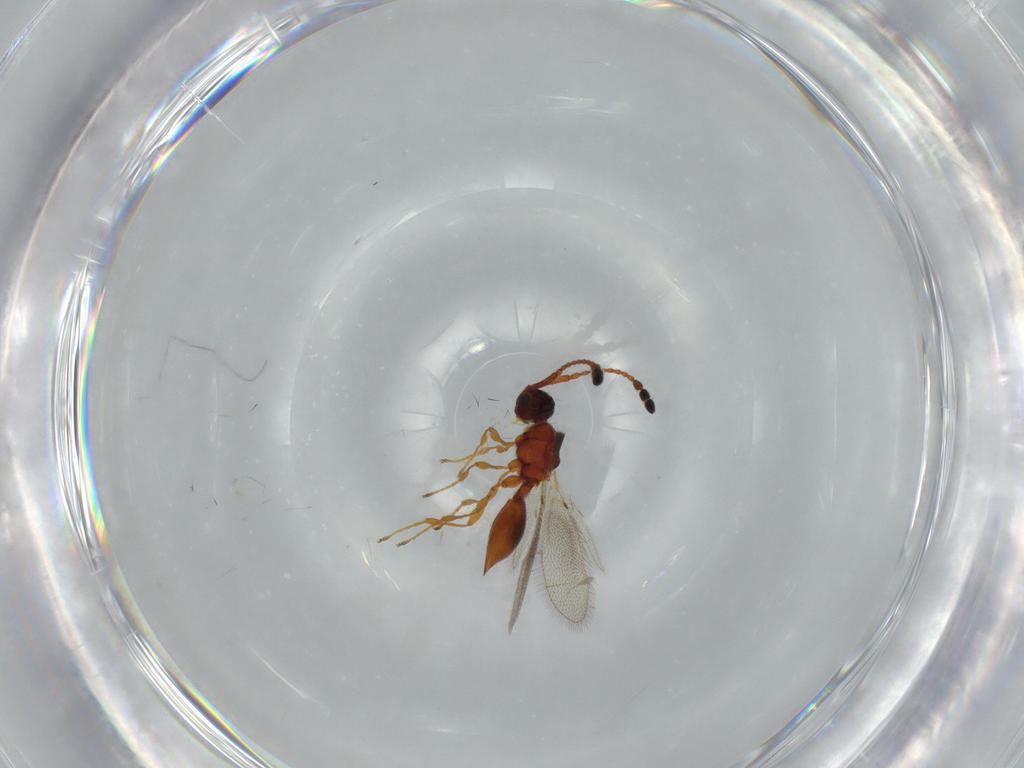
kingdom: Animalia
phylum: Arthropoda
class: Insecta
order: Hymenoptera
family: Diapriidae
